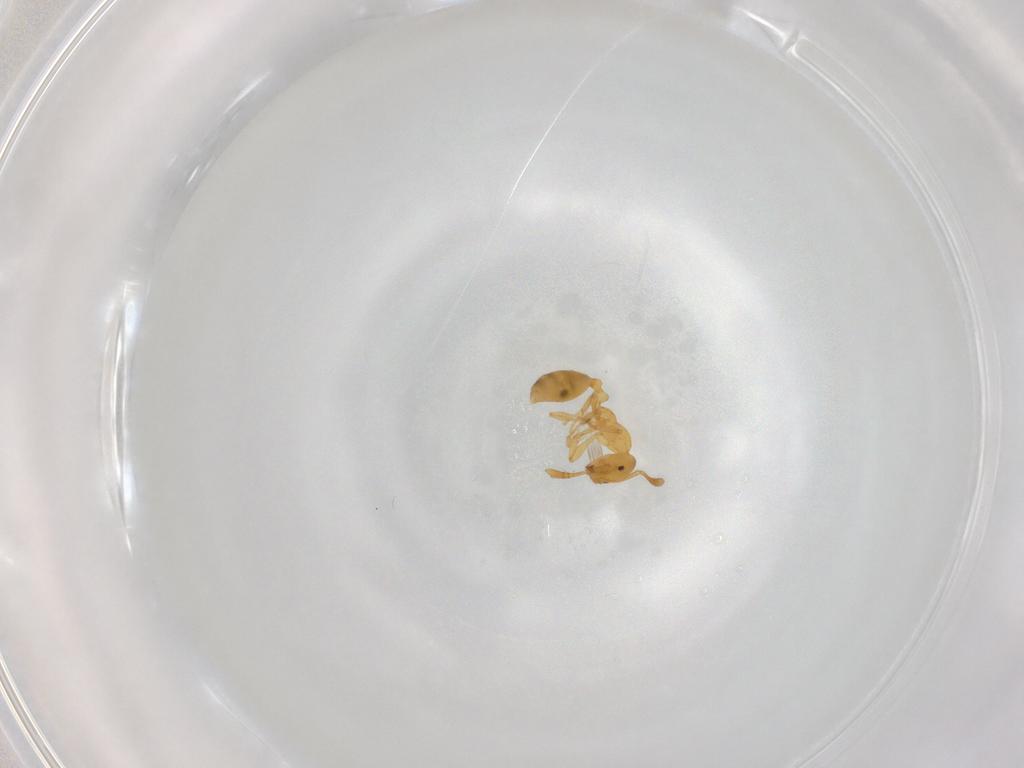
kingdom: Animalia
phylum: Arthropoda
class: Insecta
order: Hymenoptera
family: Formicidae
